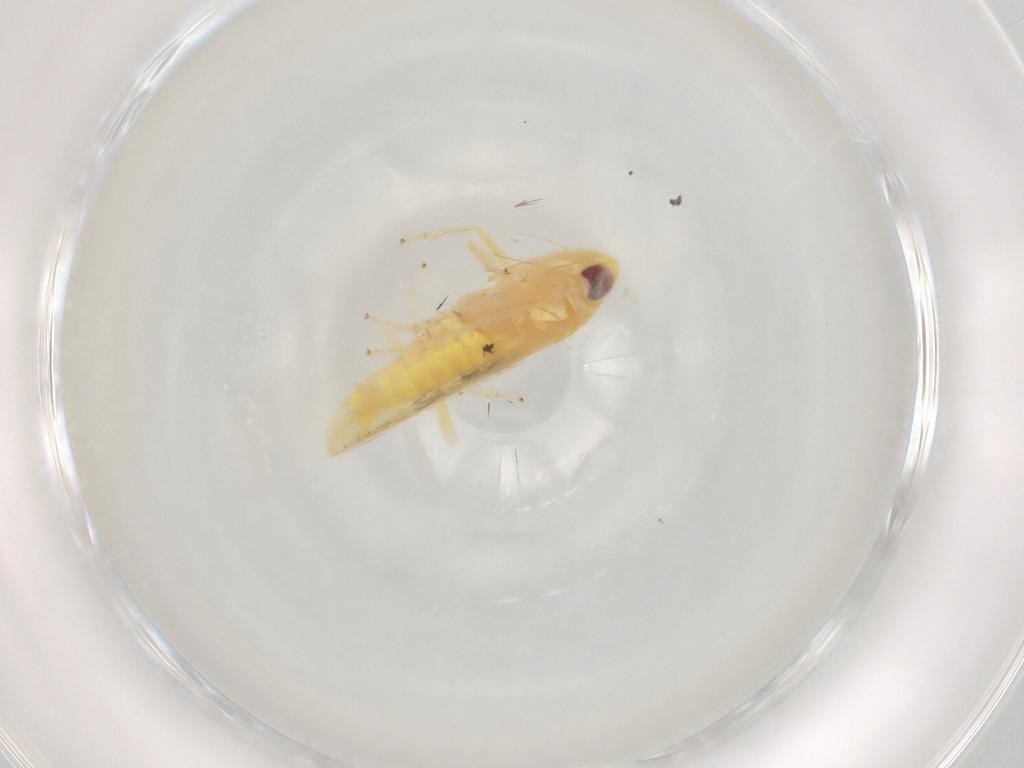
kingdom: Animalia
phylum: Arthropoda
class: Insecta
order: Hemiptera
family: Cicadellidae
